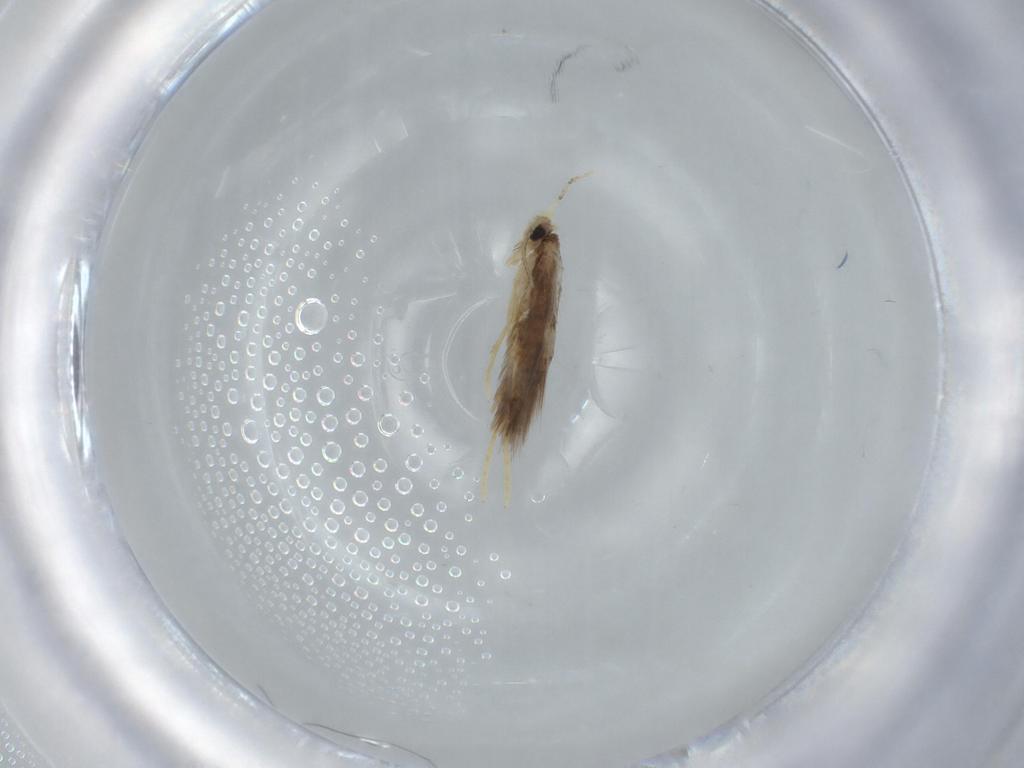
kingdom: Animalia
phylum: Arthropoda
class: Insecta
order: Lepidoptera
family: Nepticulidae
